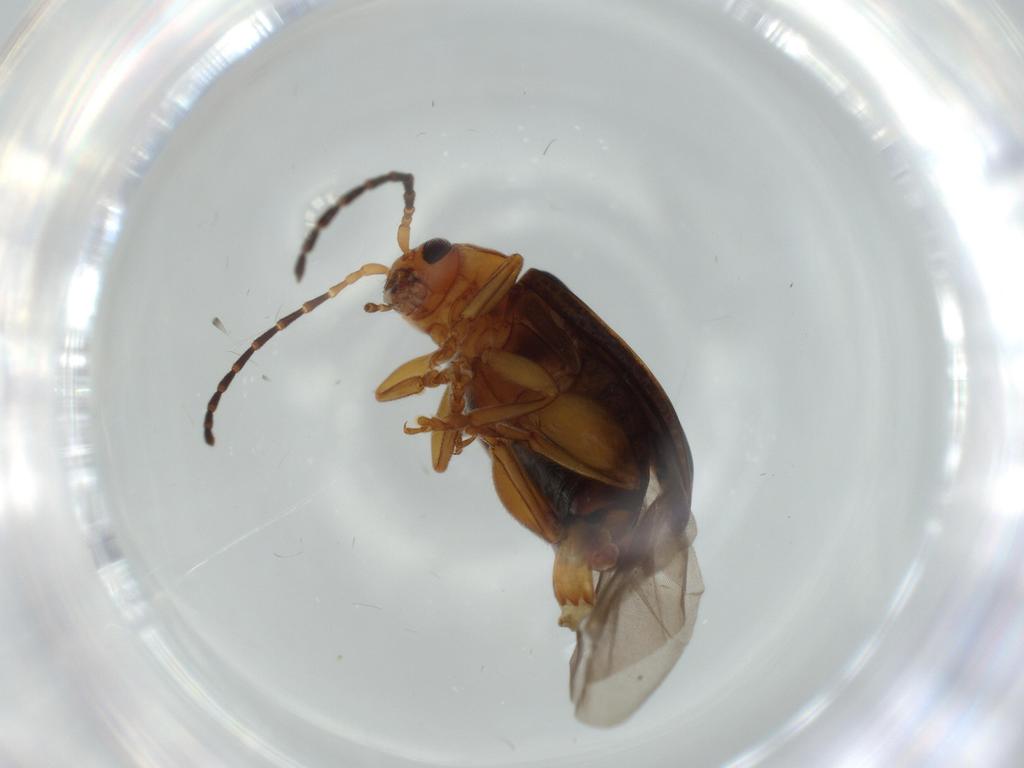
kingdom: Animalia
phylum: Arthropoda
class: Insecta
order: Coleoptera
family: Chrysomelidae
